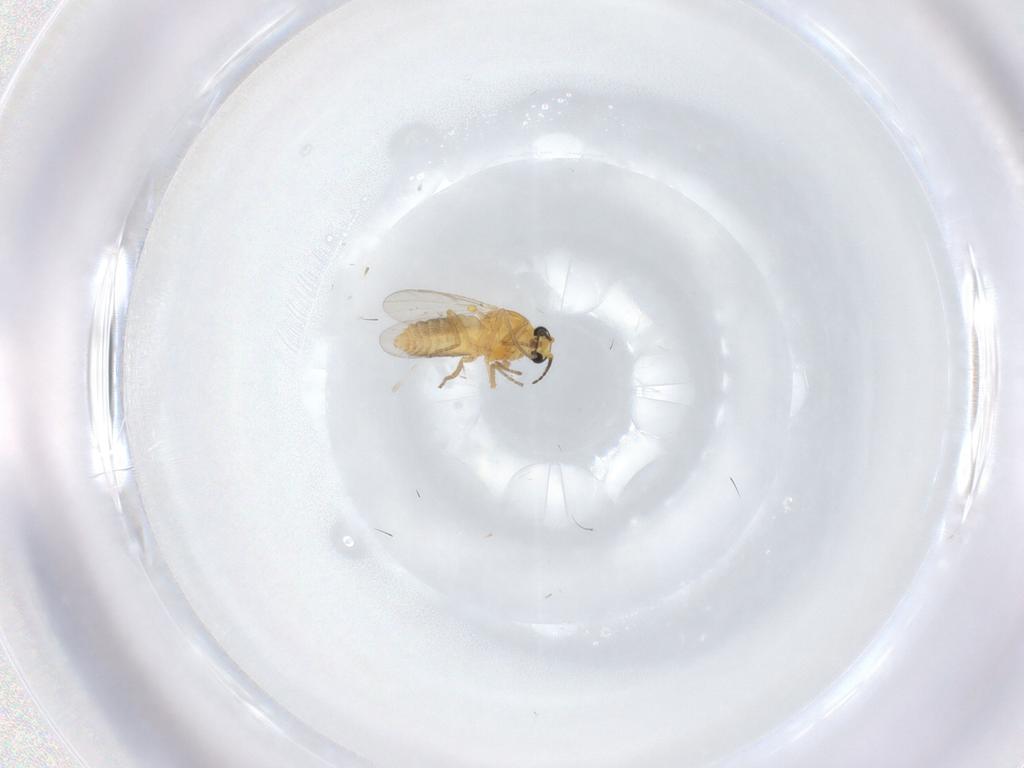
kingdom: Animalia
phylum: Arthropoda
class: Insecta
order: Diptera
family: Ceratopogonidae
